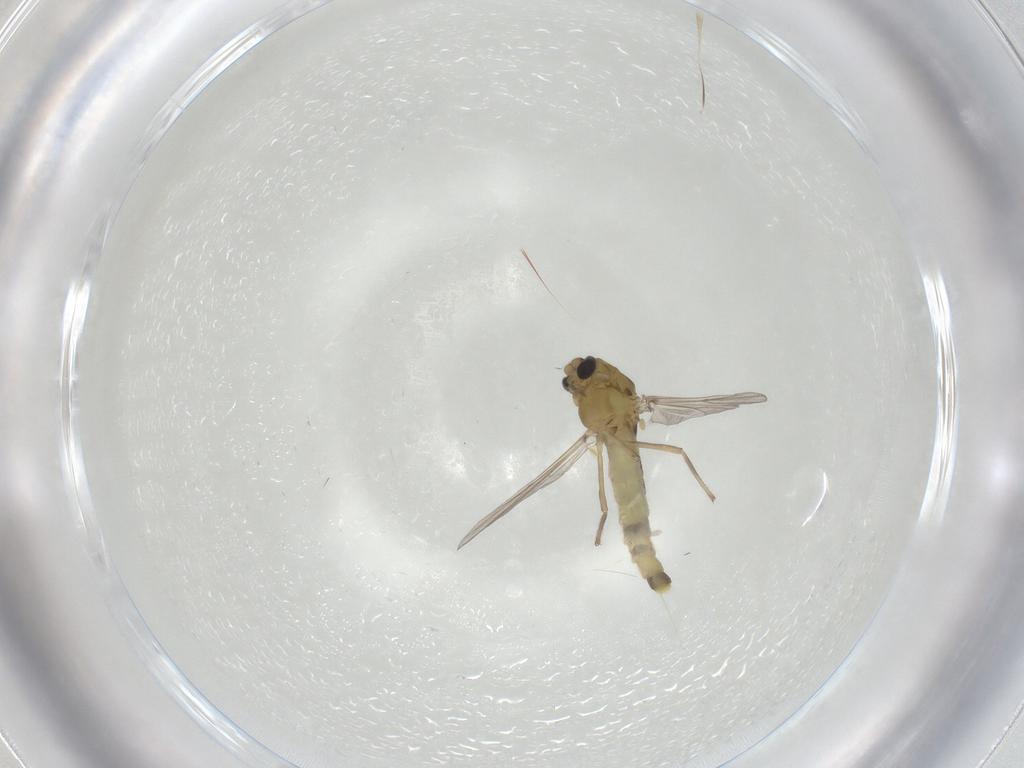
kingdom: Animalia
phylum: Arthropoda
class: Insecta
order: Diptera
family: Chironomidae
